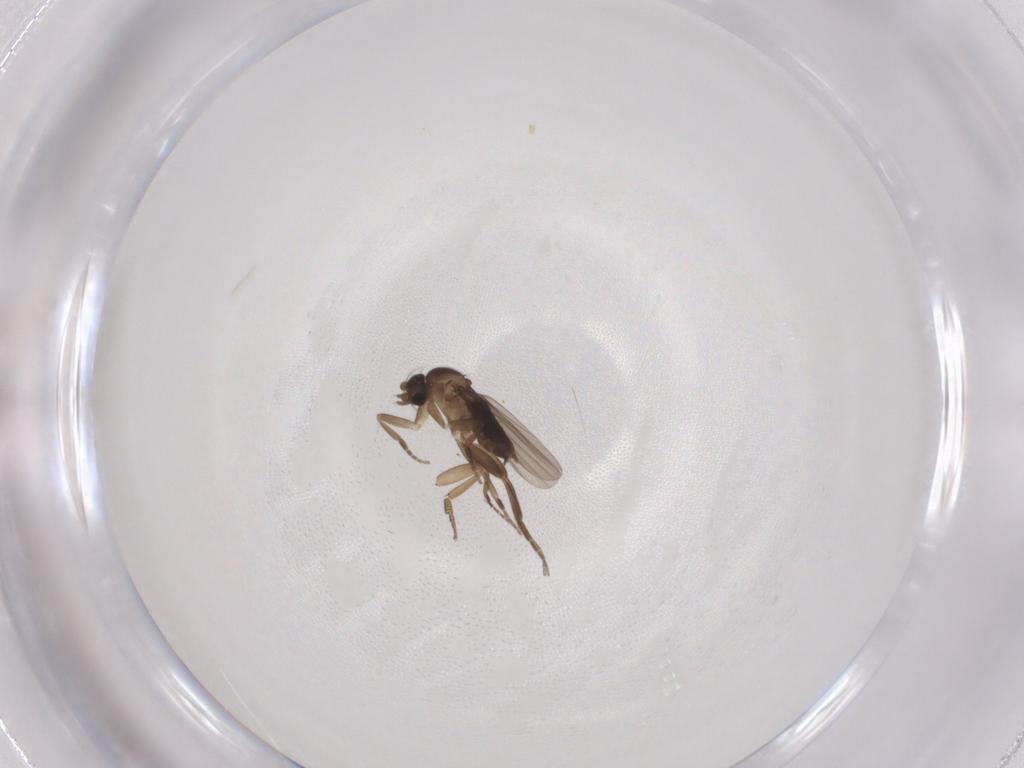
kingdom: Animalia
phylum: Arthropoda
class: Insecta
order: Diptera
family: Phoridae
